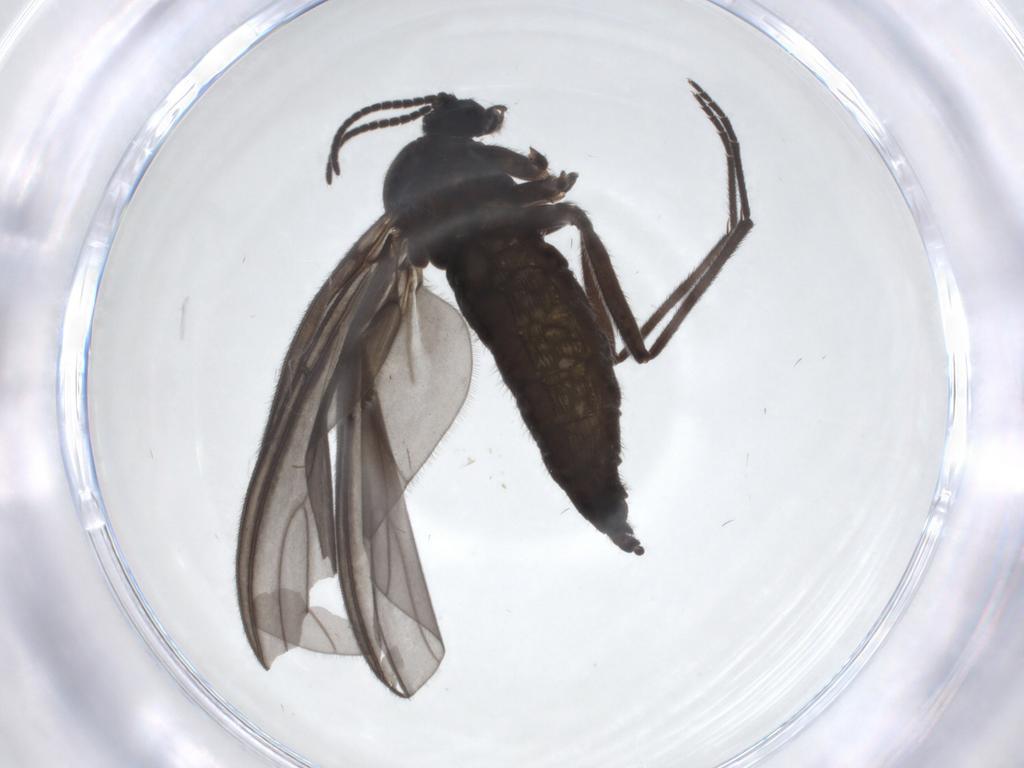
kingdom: Animalia
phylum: Arthropoda
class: Insecta
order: Diptera
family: Sciaridae
